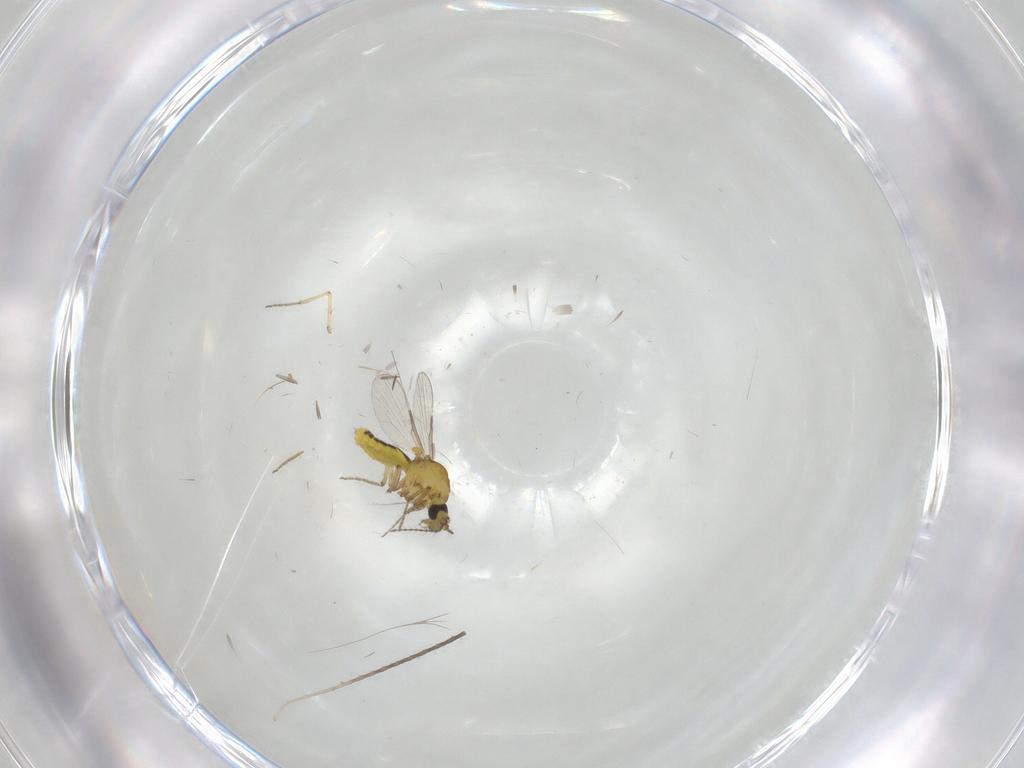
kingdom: Animalia
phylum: Arthropoda
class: Insecta
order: Diptera
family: Ceratopogonidae
